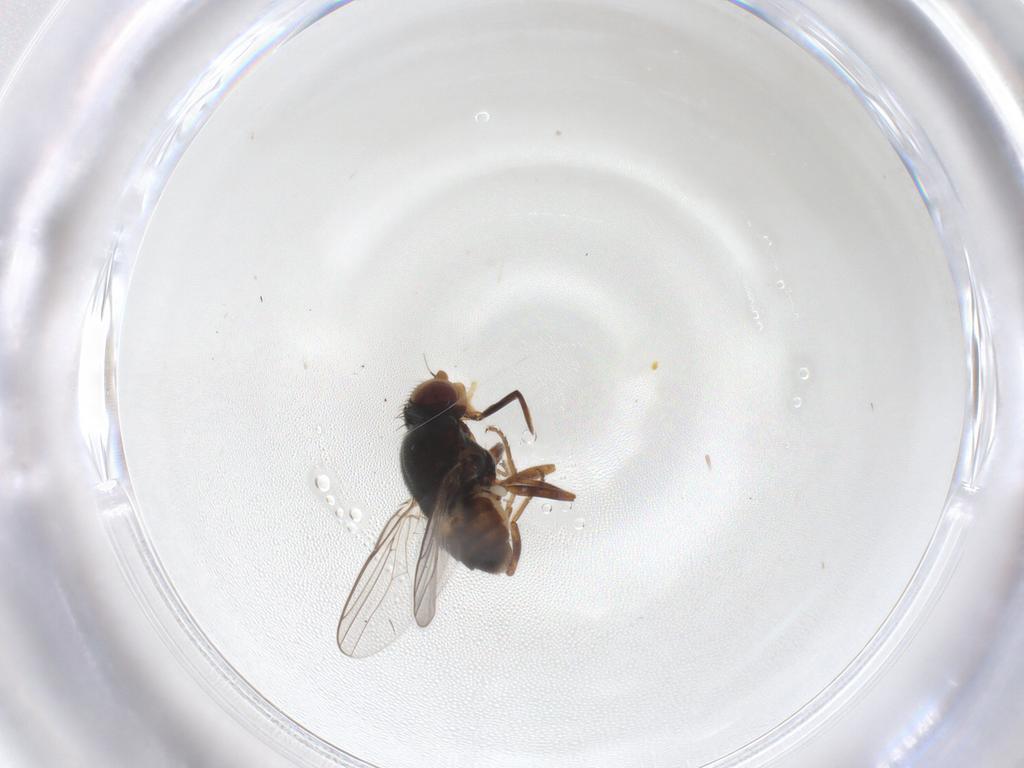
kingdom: Animalia
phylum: Arthropoda
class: Insecta
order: Diptera
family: Chloropidae
